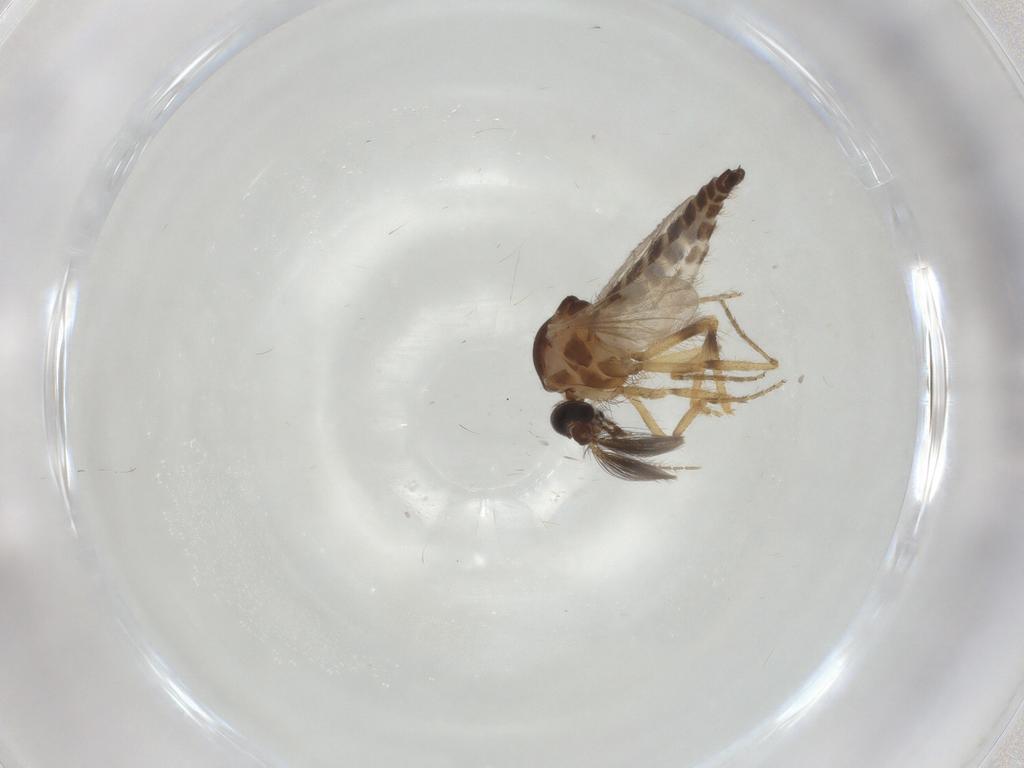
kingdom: Animalia
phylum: Arthropoda
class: Insecta
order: Diptera
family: Ceratopogonidae
